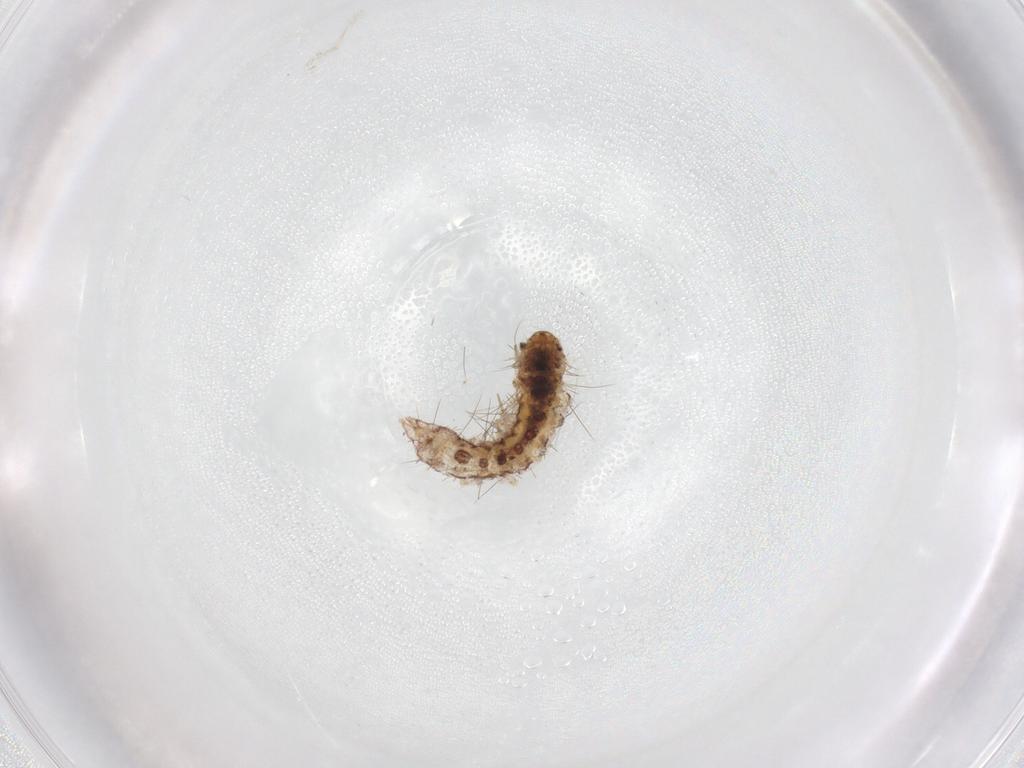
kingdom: Animalia
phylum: Arthropoda
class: Insecta
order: Lepidoptera
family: Erebidae
